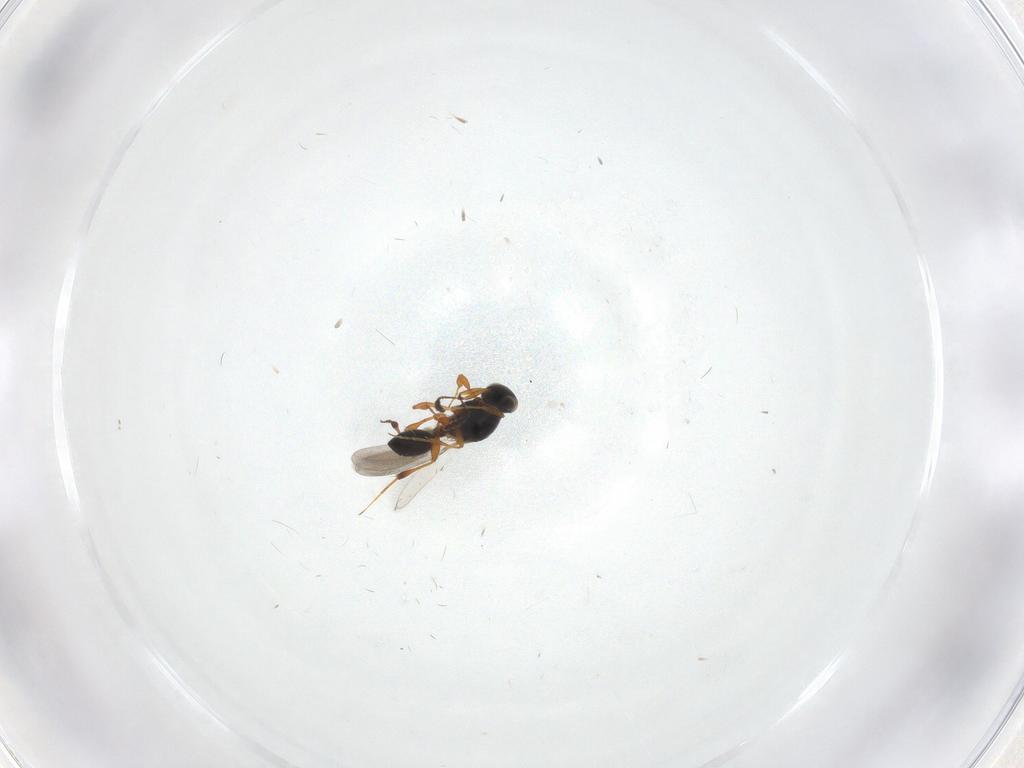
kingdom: Animalia
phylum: Arthropoda
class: Insecta
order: Hymenoptera
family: Platygastridae
